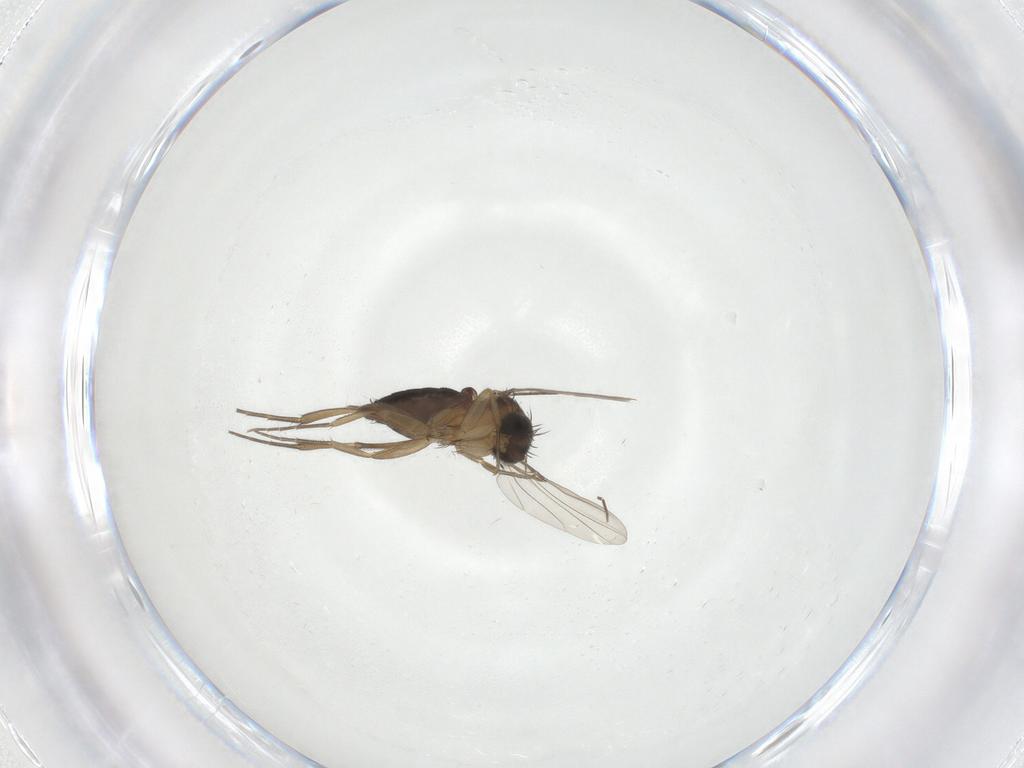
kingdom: Animalia
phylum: Arthropoda
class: Insecta
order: Diptera
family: Chironomidae
